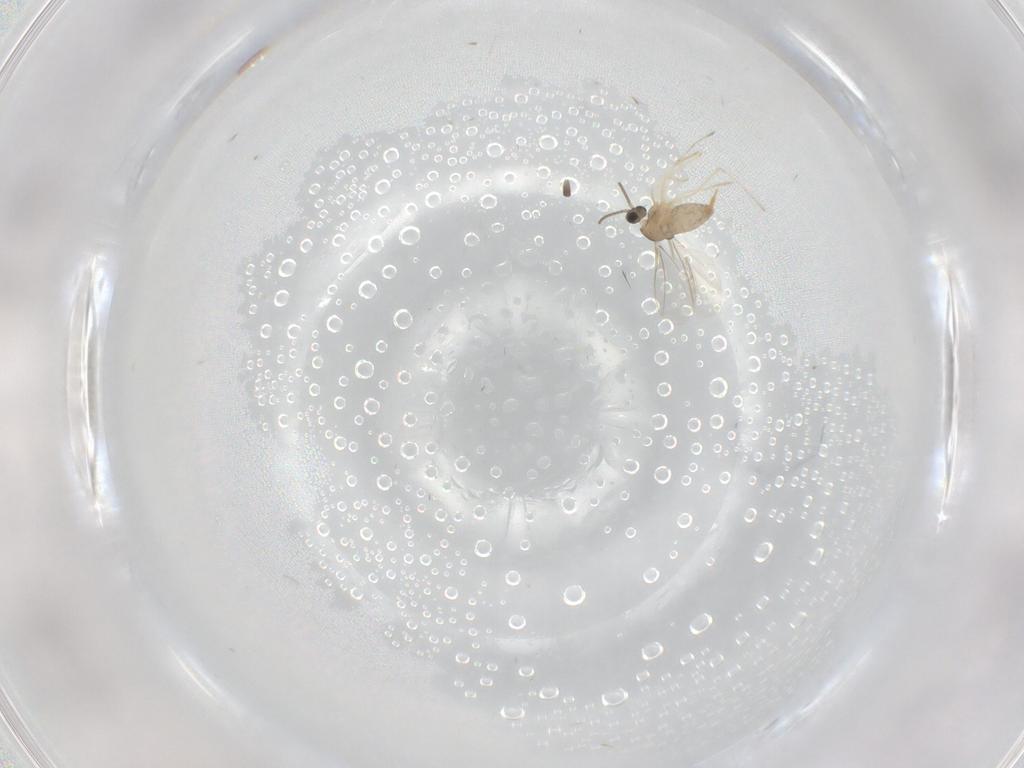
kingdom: Animalia
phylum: Arthropoda
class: Insecta
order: Diptera
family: Cecidomyiidae
